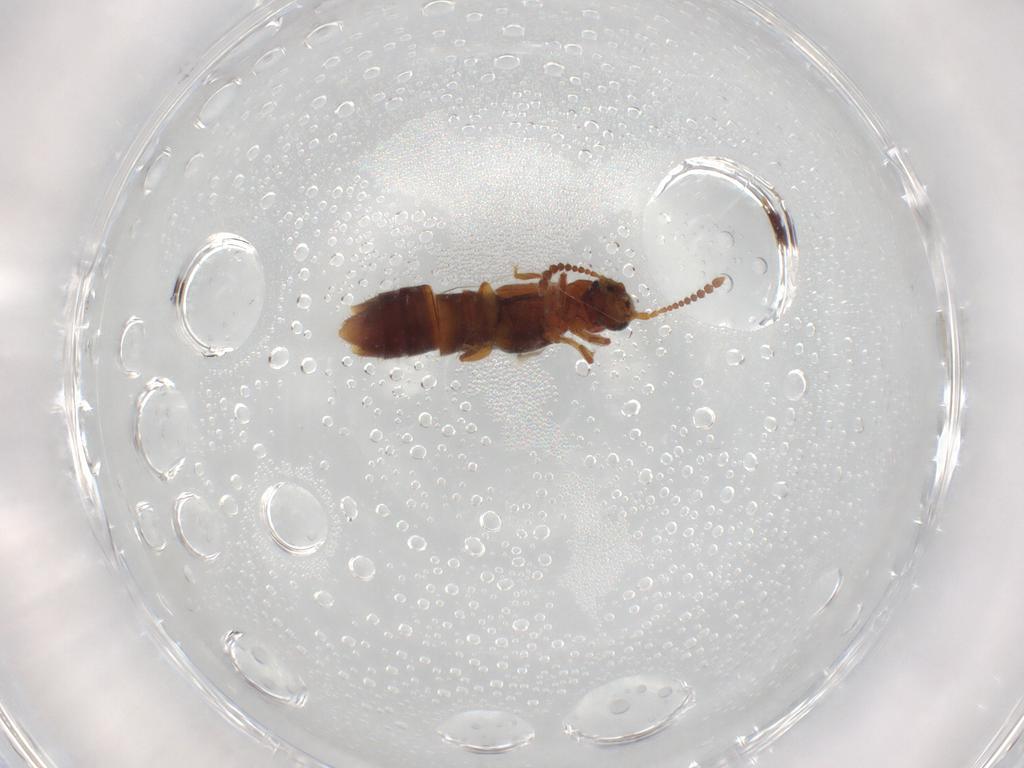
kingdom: Animalia
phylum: Arthropoda
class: Insecta
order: Coleoptera
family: Staphylinidae
